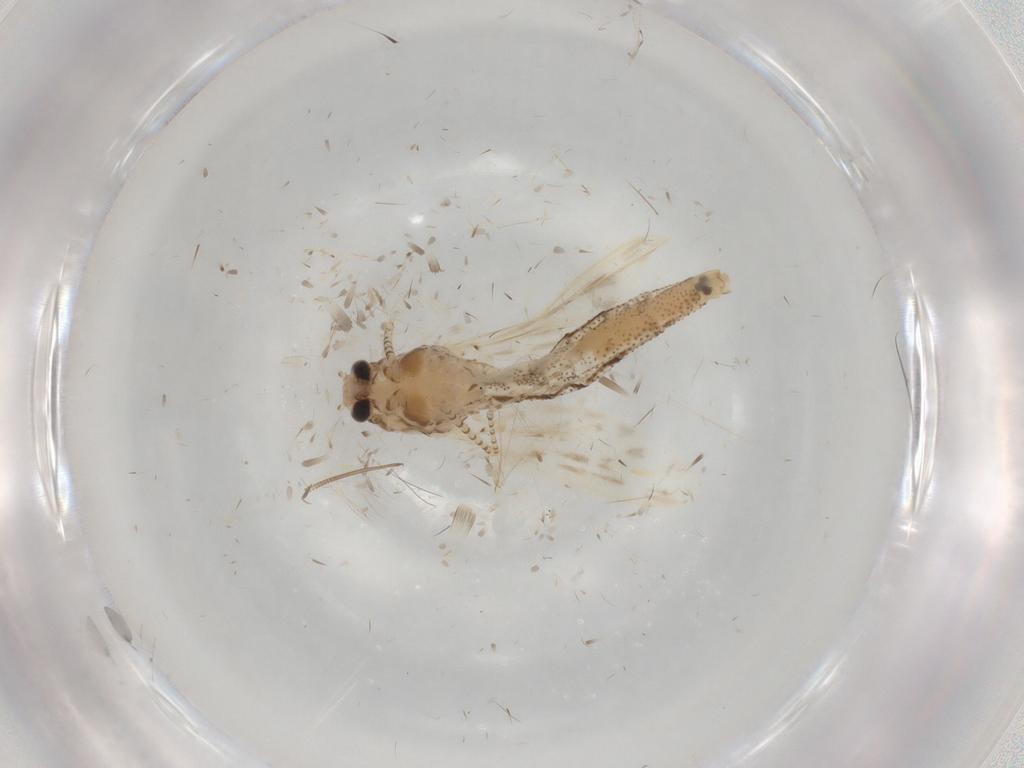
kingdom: Animalia
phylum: Arthropoda
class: Insecta
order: Diptera
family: Chaoboridae
